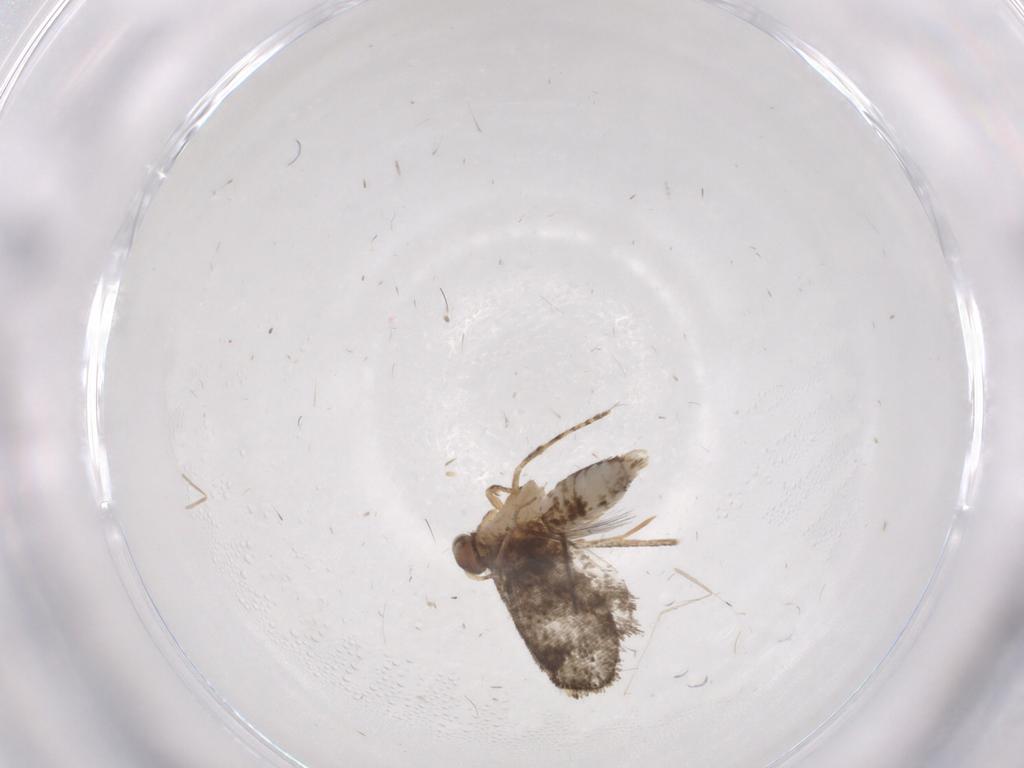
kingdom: Animalia
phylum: Arthropoda
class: Insecta
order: Lepidoptera
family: Tineidae
